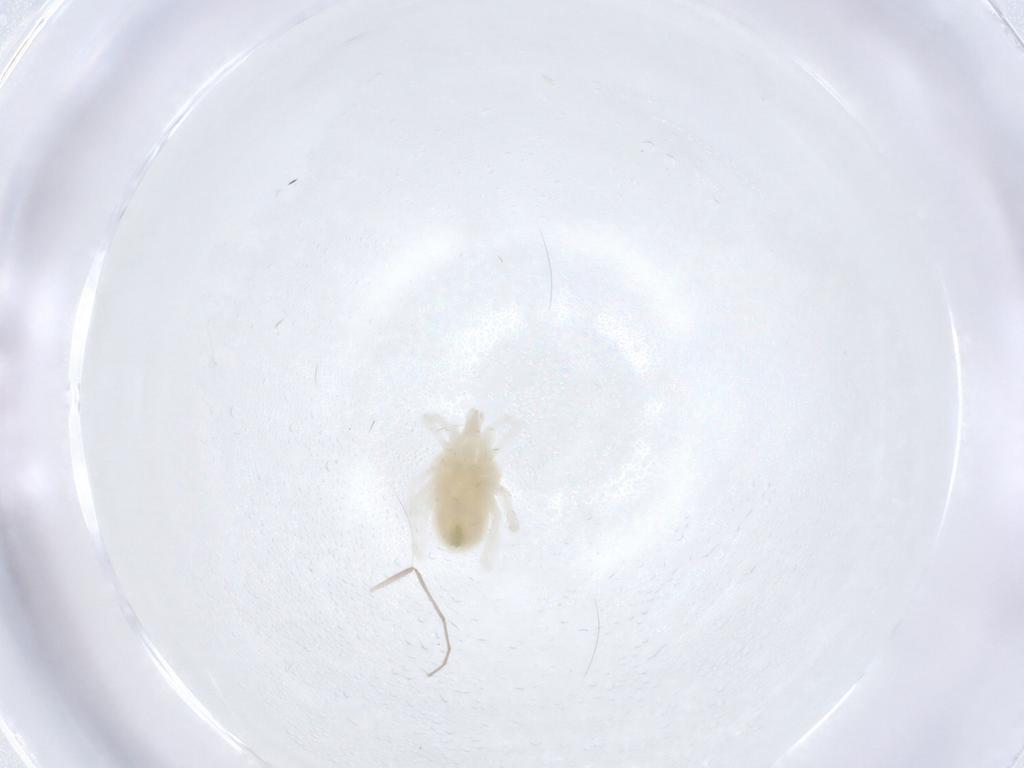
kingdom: Animalia
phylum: Arthropoda
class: Arachnida
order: Trombidiformes
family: Teneriffiidae
